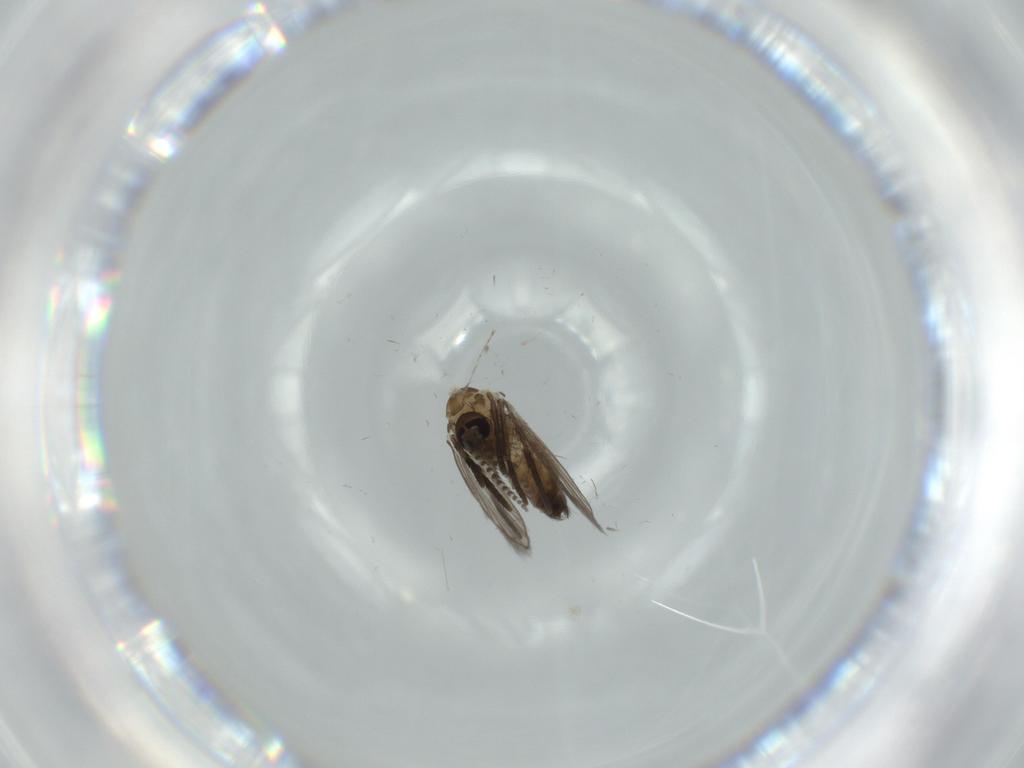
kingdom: Animalia
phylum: Arthropoda
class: Insecta
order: Diptera
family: Psychodidae
